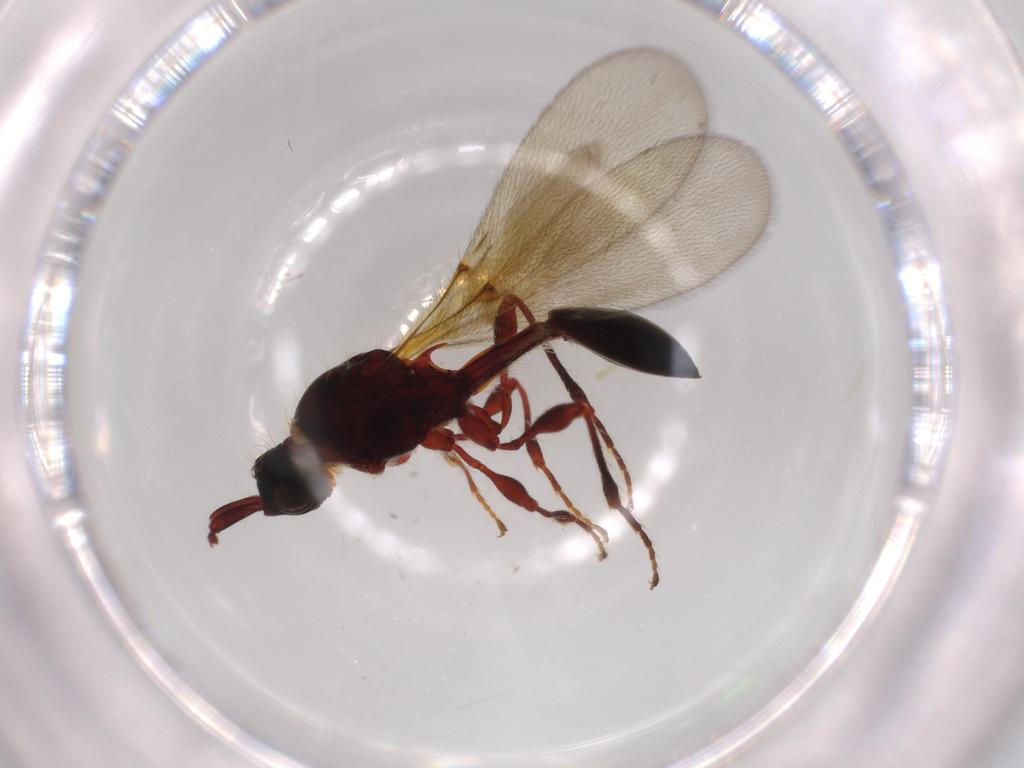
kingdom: Animalia
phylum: Arthropoda
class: Insecta
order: Hymenoptera
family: Diapriidae
